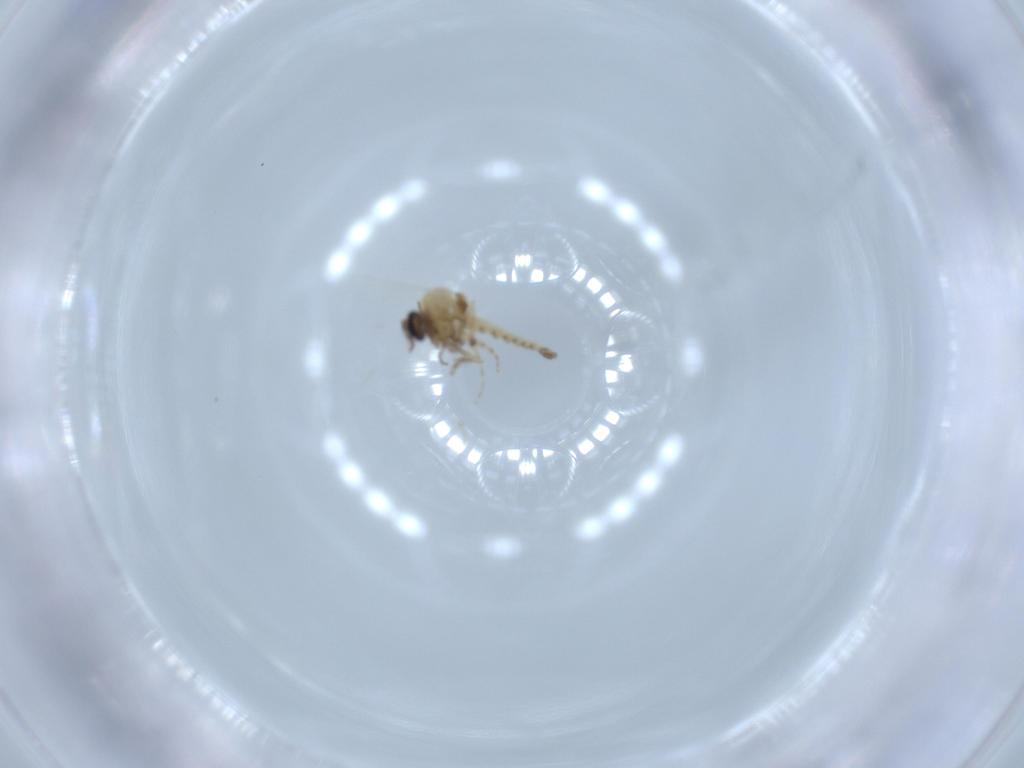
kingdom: Animalia
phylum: Arthropoda
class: Insecta
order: Diptera
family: Ceratopogonidae
